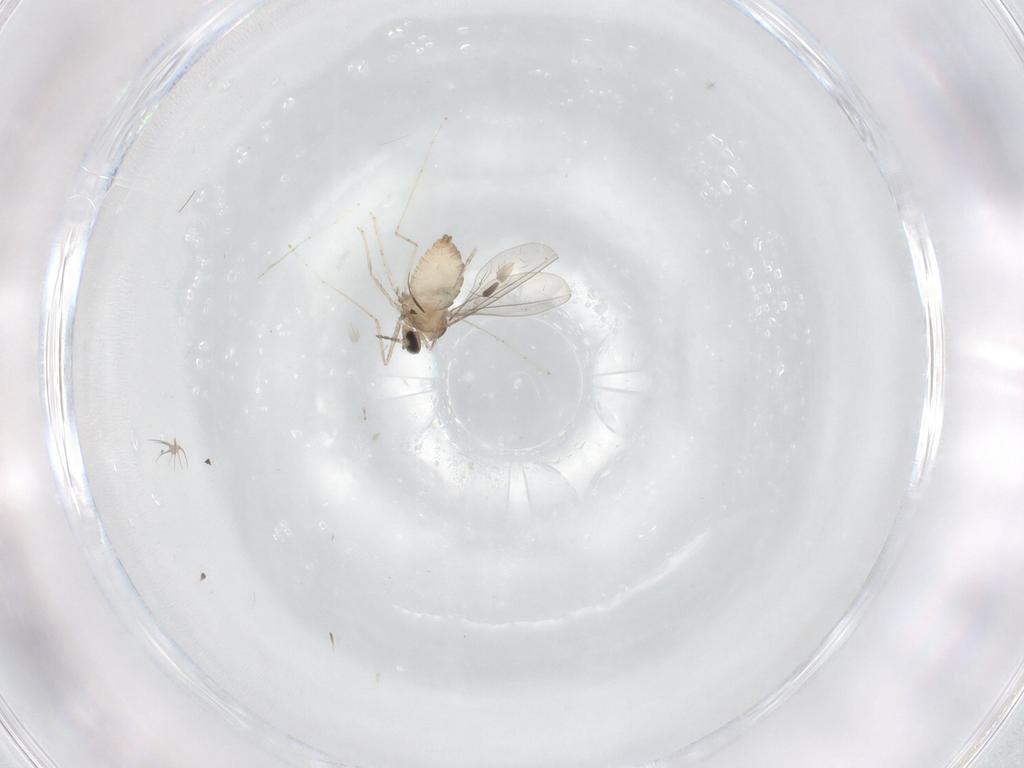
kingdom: Animalia
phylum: Arthropoda
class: Insecta
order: Diptera
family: Cecidomyiidae
